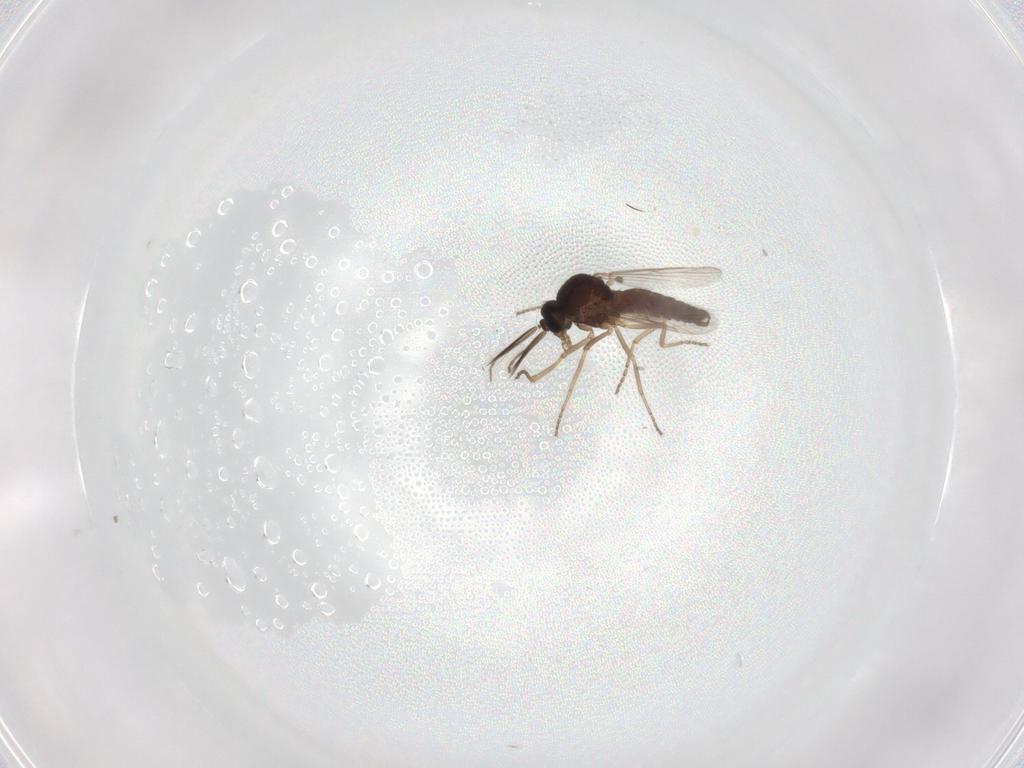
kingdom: Animalia
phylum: Arthropoda
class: Insecta
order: Diptera
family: Ceratopogonidae
